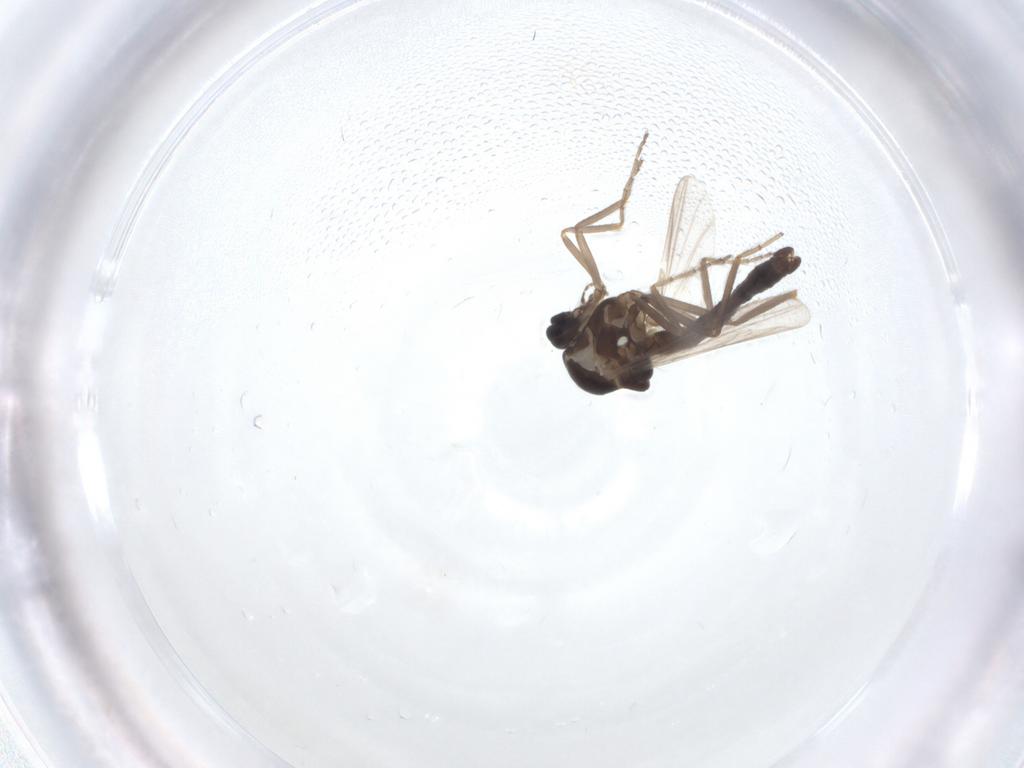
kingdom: Animalia
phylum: Arthropoda
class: Insecta
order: Diptera
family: Ceratopogonidae
